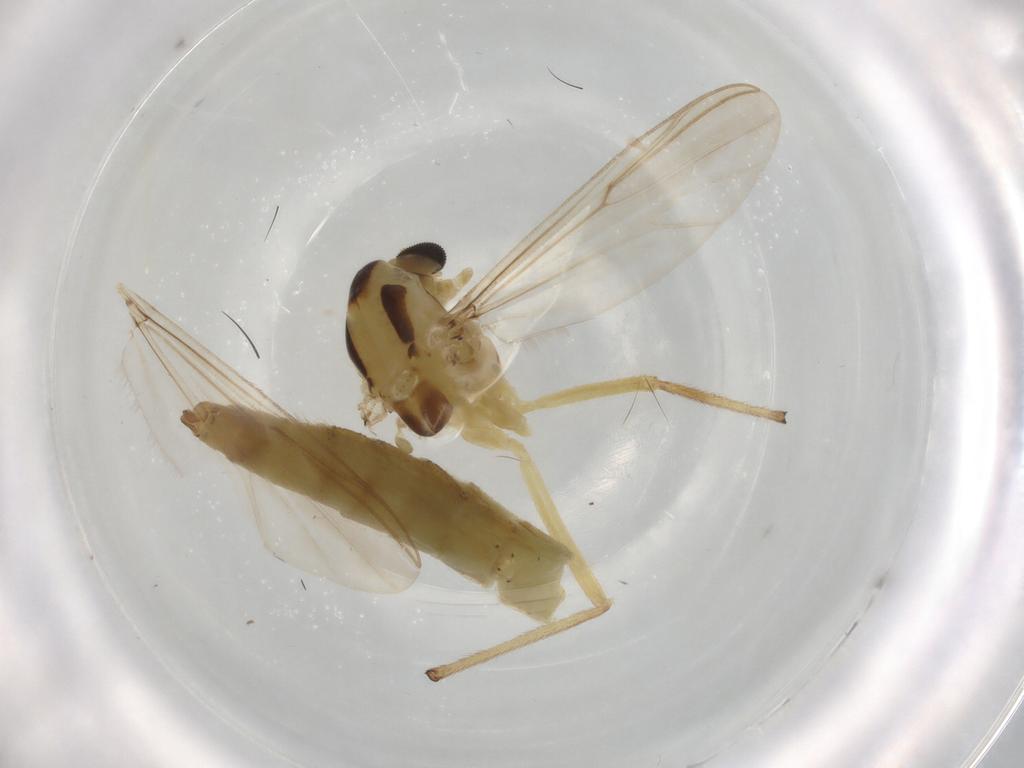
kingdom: Animalia
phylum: Arthropoda
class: Insecta
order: Diptera
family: Chironomidae
